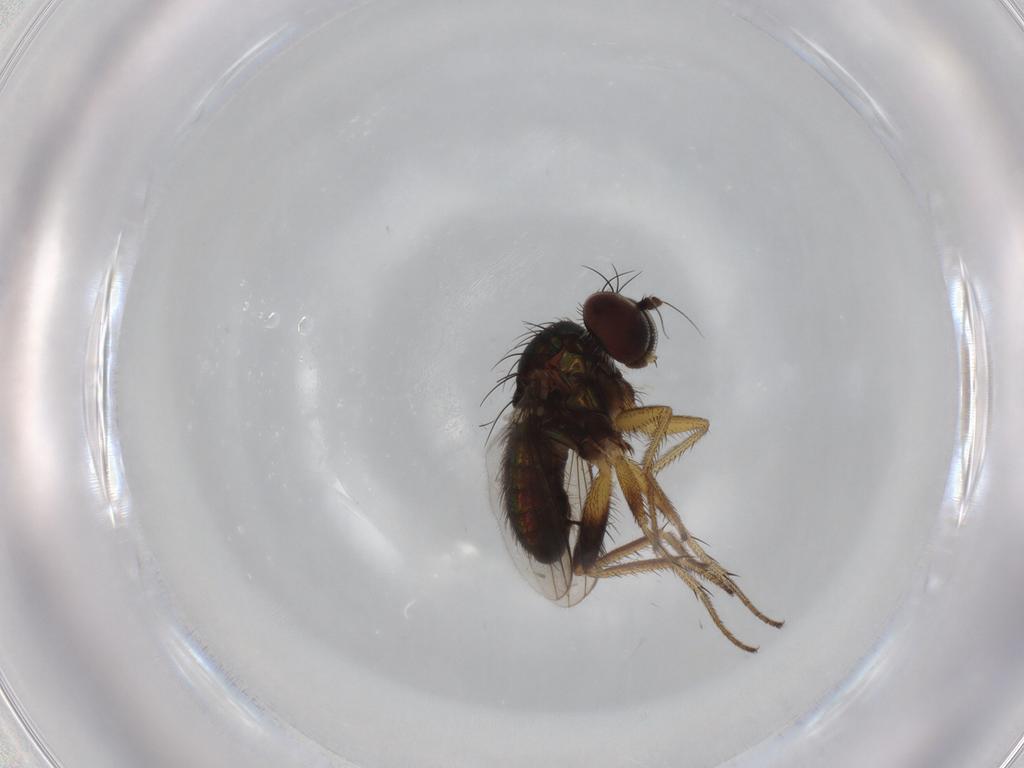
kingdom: Animalia
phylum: Arthropoda
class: Insecta
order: Diptera
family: Dolichopodidae
